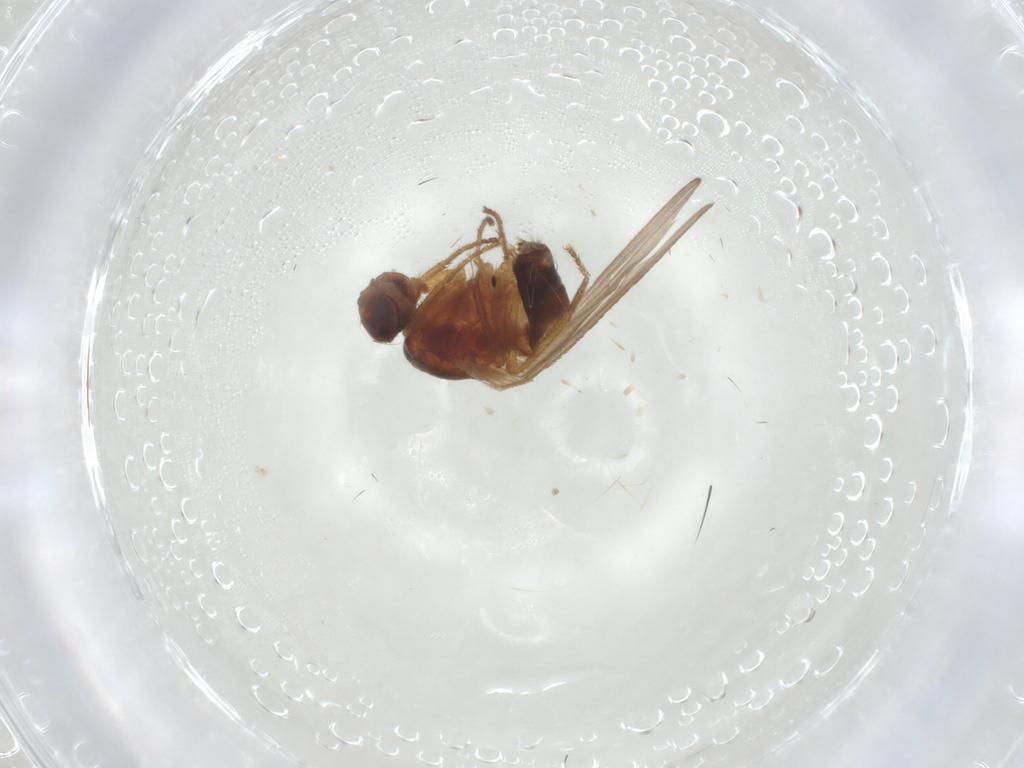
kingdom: Animalia
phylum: Arthropoda
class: Insecta
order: Diptera
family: Agromyzidae
